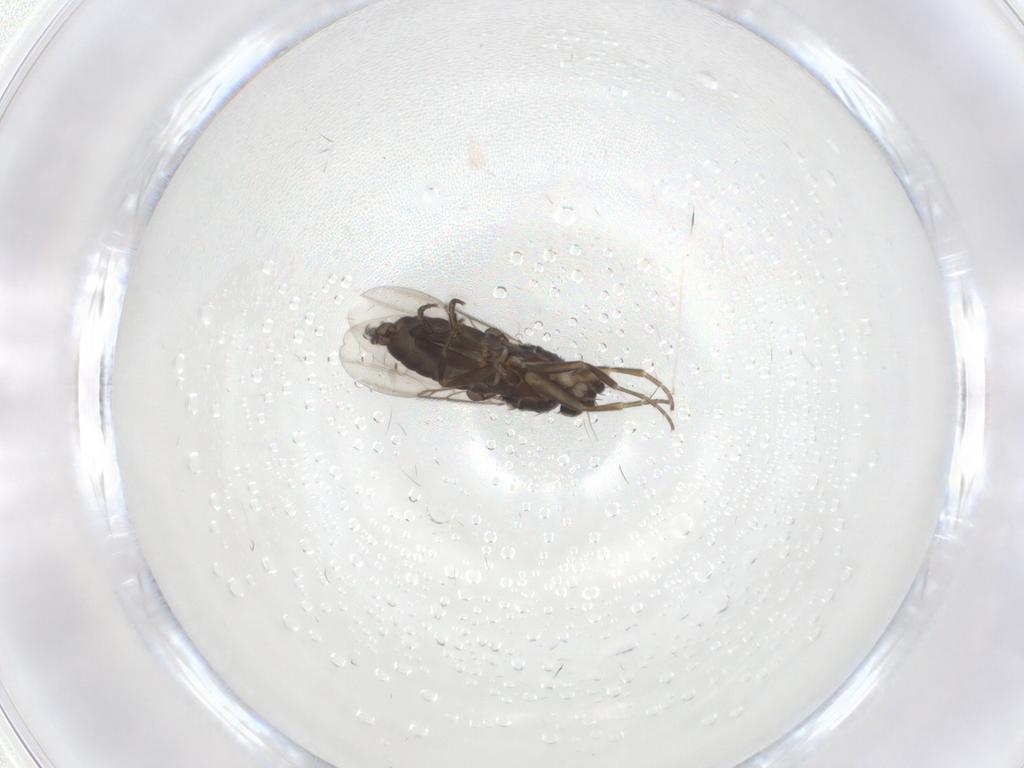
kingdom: Animalia
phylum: Arthropoda
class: Insecta
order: Diptera
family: Phoridae
